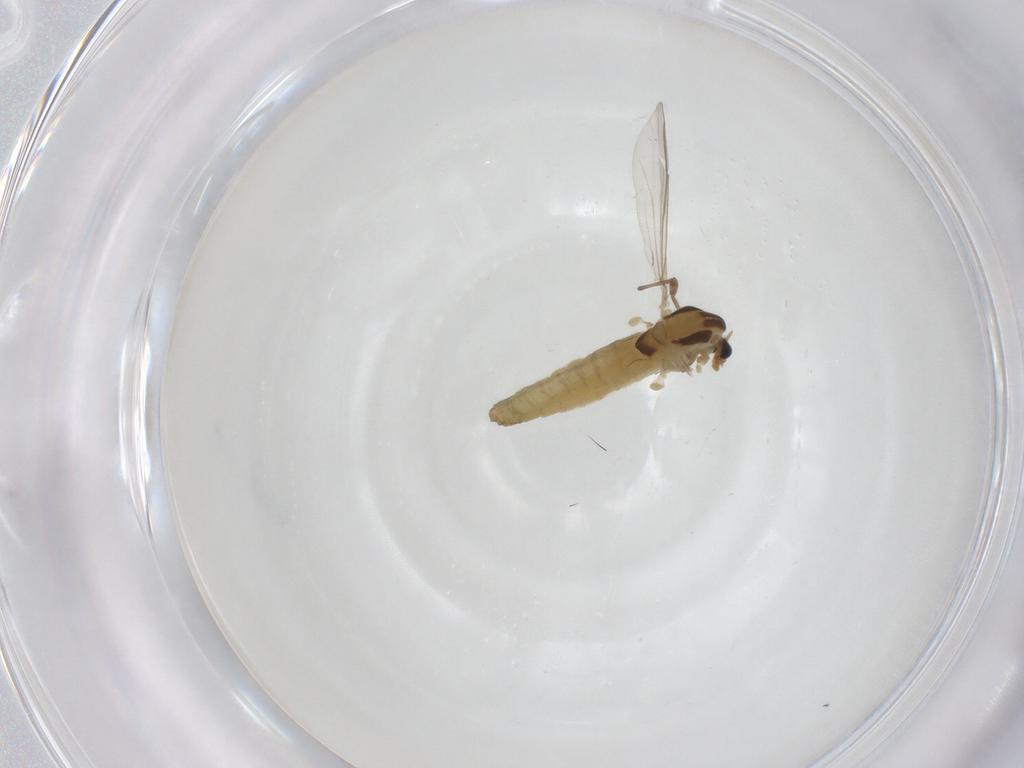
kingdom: Animalia
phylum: Arthropoda
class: Insecta
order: Diptera
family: Chironomidae
